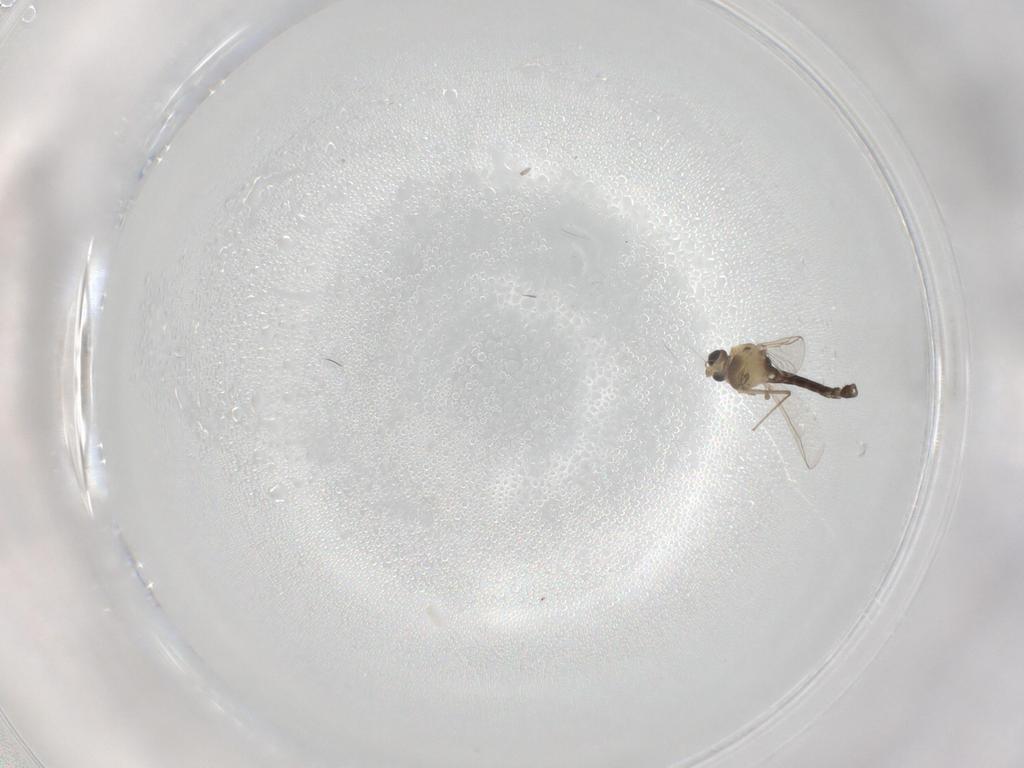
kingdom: Animalia
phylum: Arthropoda
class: Insecta
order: Diptera
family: Chironomidae
